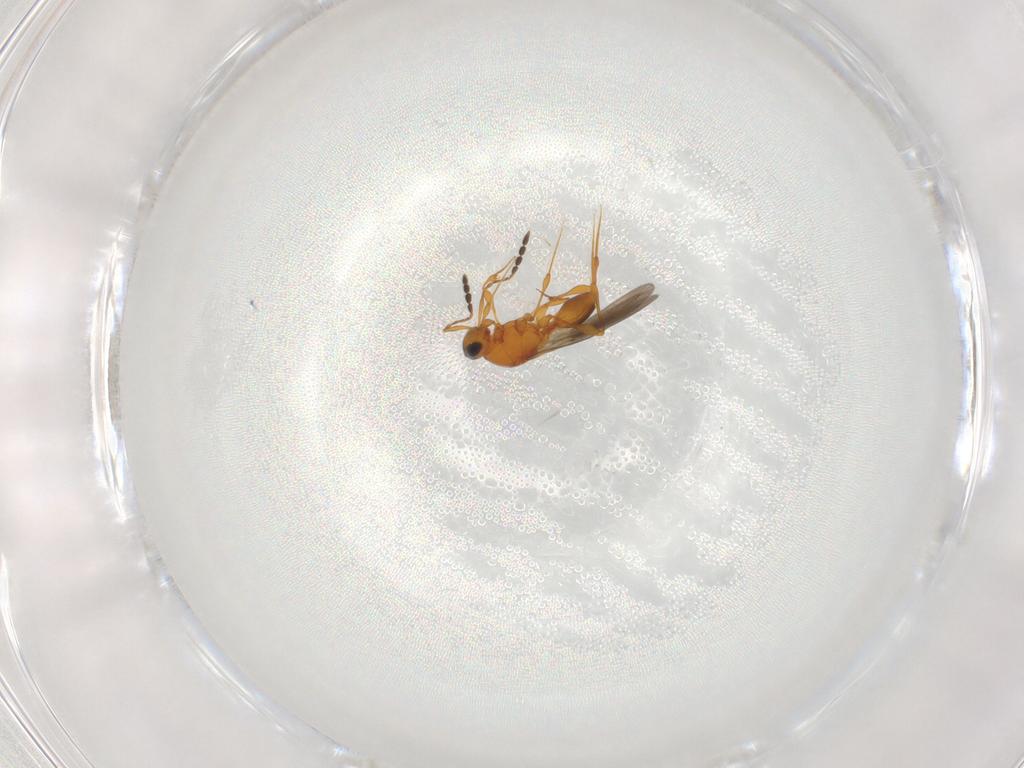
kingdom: Animalia
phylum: Arthropoda
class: Insecta
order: Hymenoptera
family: Platygastridae
